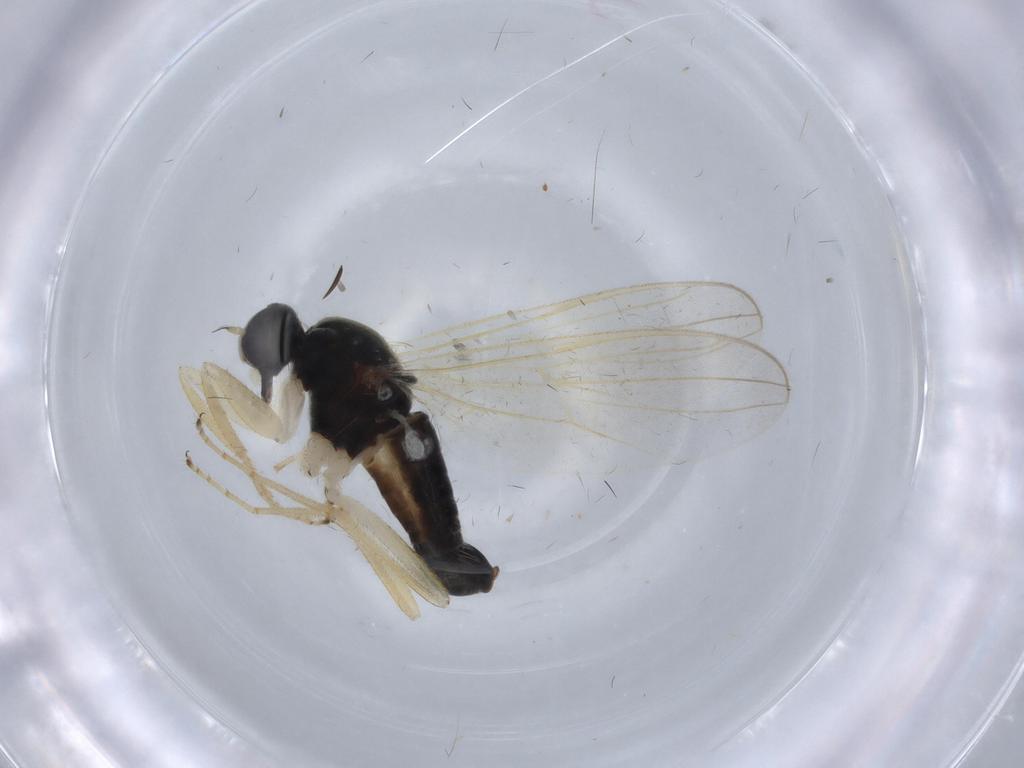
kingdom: Animalia
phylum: Arthropoda
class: Insecta
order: Diptera
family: Hybotidae
